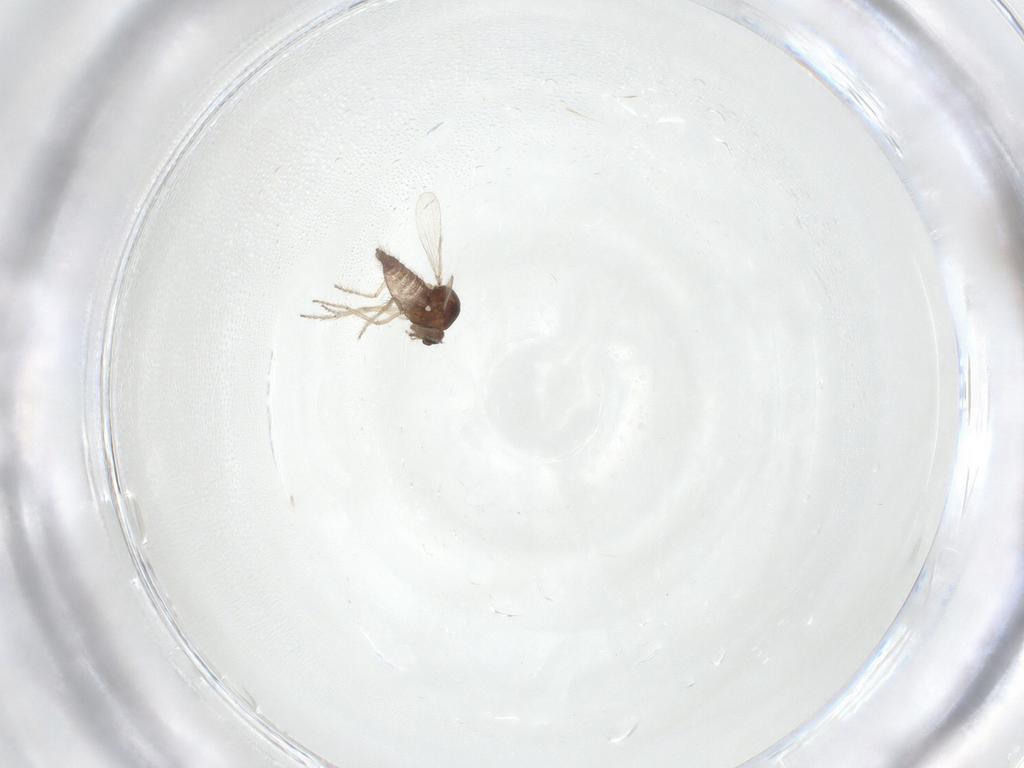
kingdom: Animalia
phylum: Arthropoda
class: Insecta
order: Diptera
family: Ceratopogonidae
